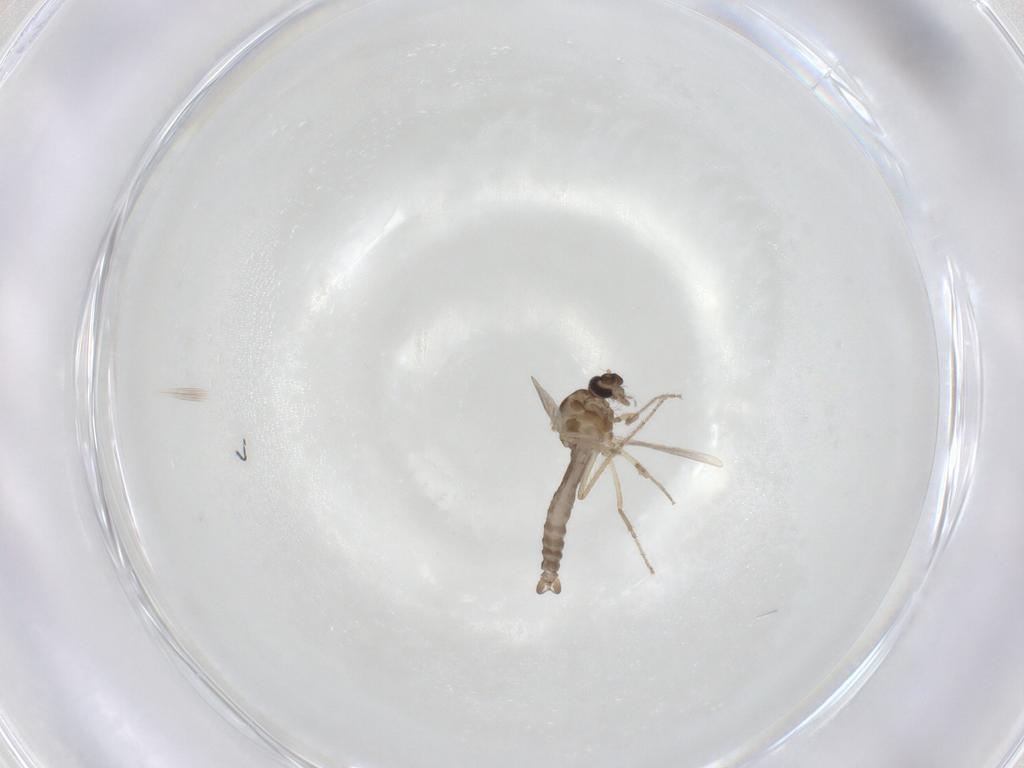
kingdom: Animalia
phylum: Arthropoda
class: Insecta
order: Diptera
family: Ceratopogonidae
